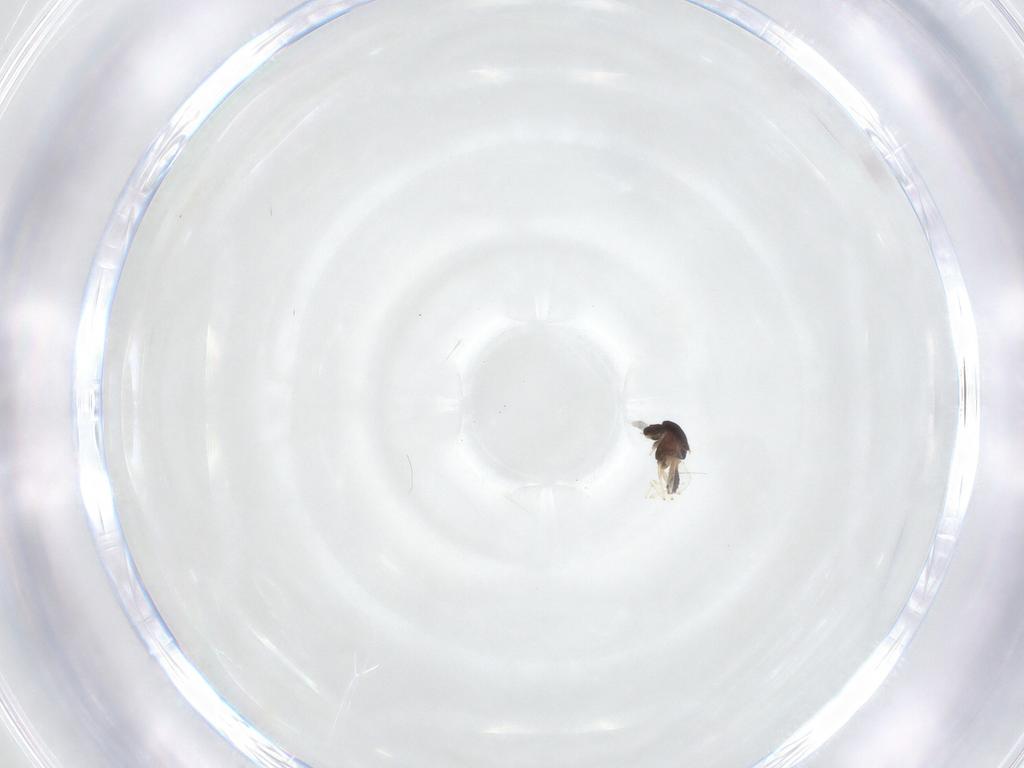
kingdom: Animalia
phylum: Arthropoda
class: Insecta
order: Diptera
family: Chironomidae
